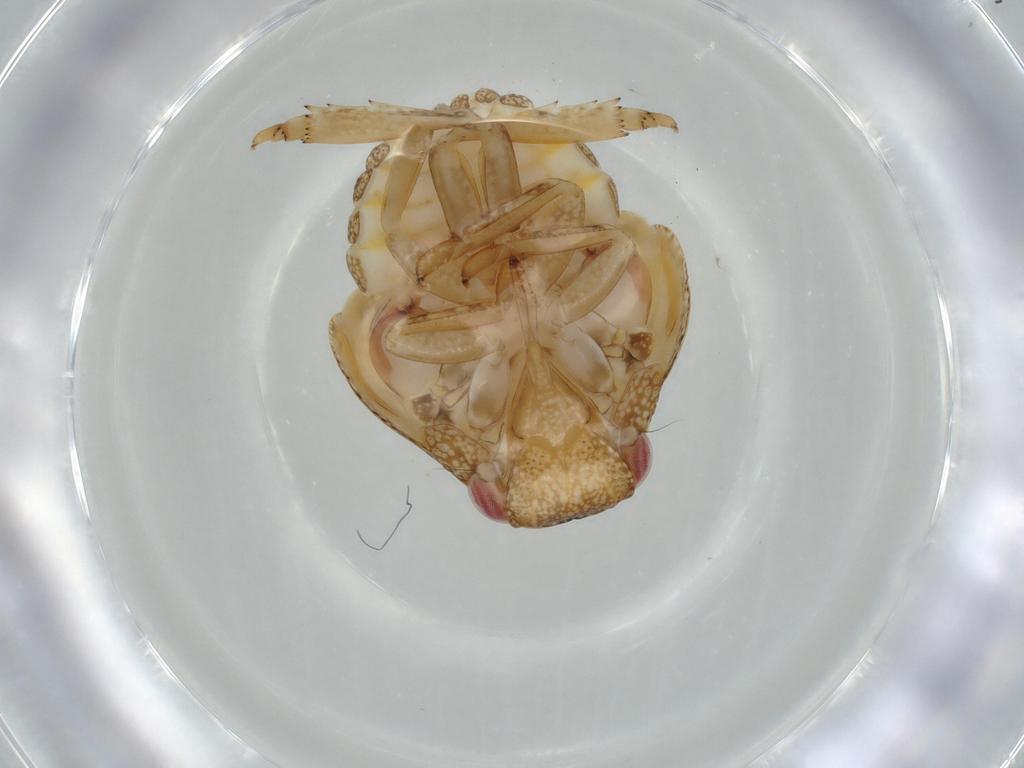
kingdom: Animalia
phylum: Arthropoda
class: Insecta
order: Hemiptera
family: Acanaloniidae
